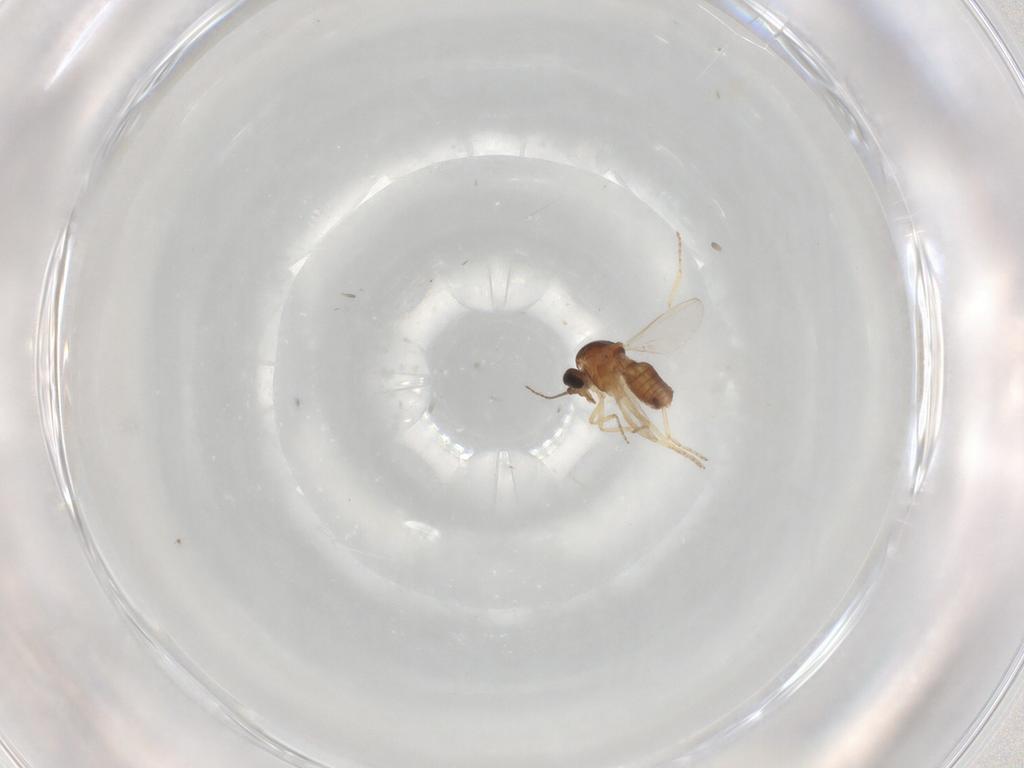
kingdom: Animalia
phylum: Arthropoda
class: Insecta
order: Diptera
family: Ceratopogonidae
